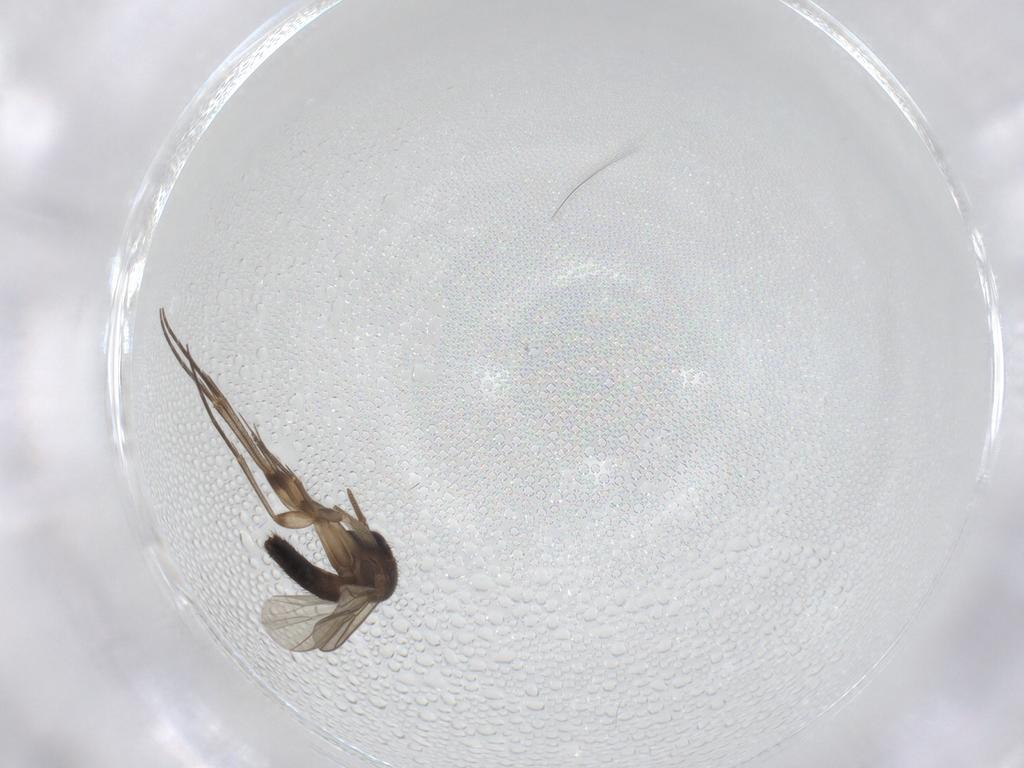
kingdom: Animalia
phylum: Arthropoda
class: Insecta
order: Diptera
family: Mycetophilidae
